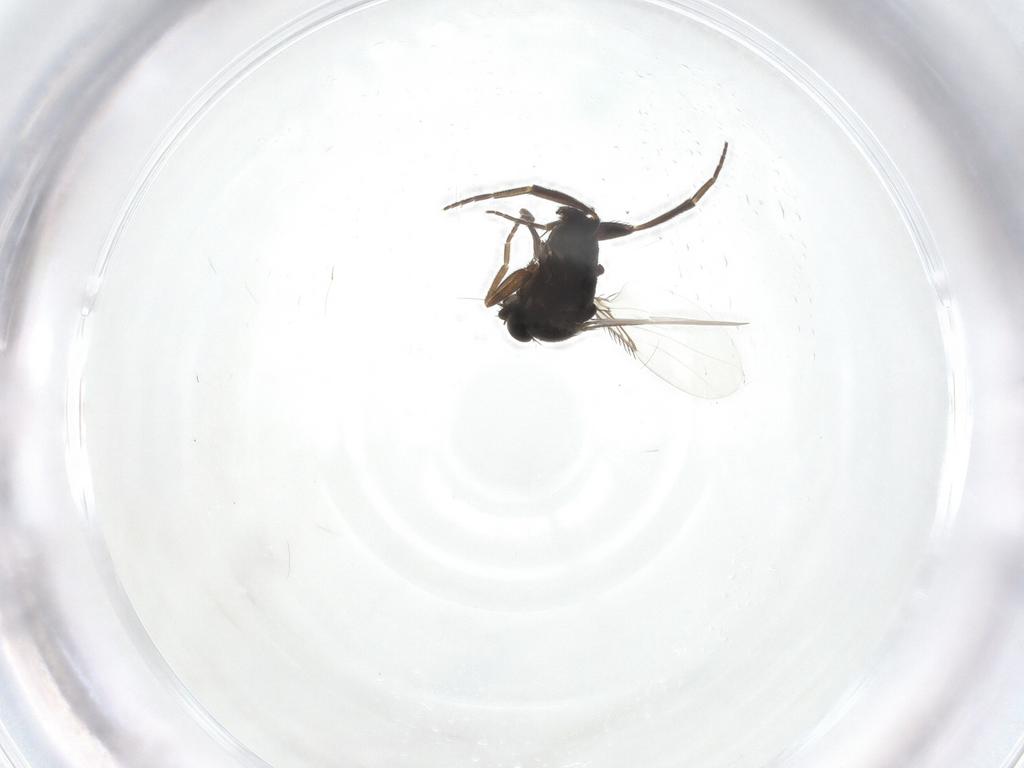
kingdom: Animalia
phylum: Arthropoda
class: Insecta
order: Diptera
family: Phoridae
